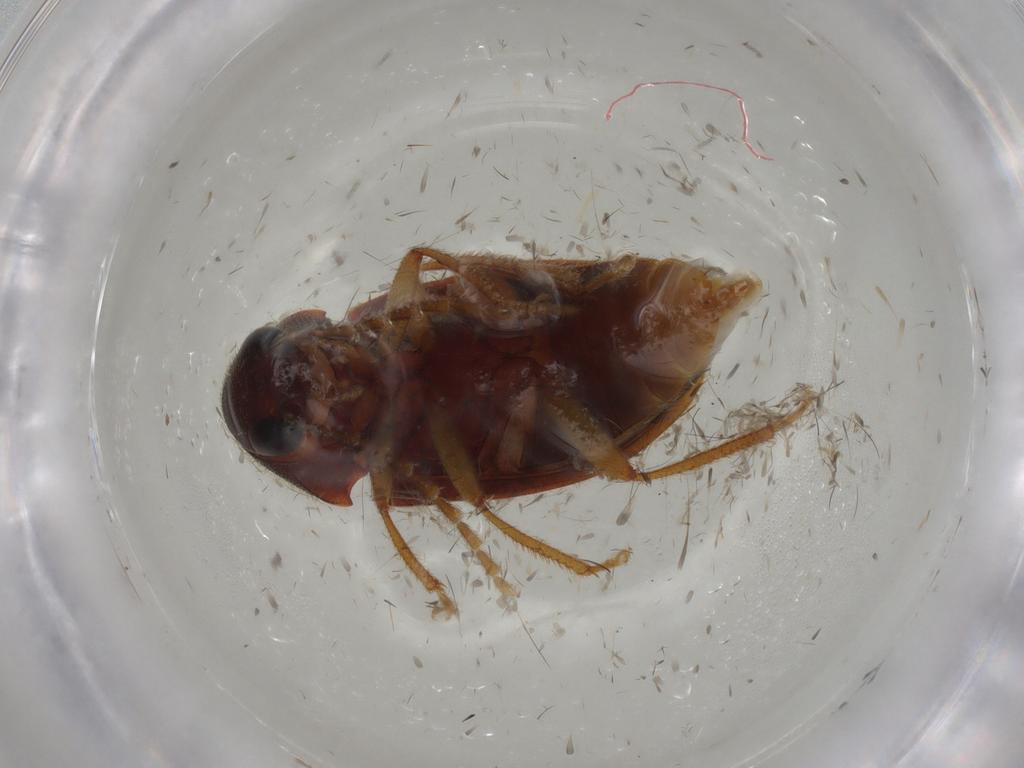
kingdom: Animalia
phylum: Arthropoda
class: Insecta
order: Coleoptera
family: Ptilodactylidae
